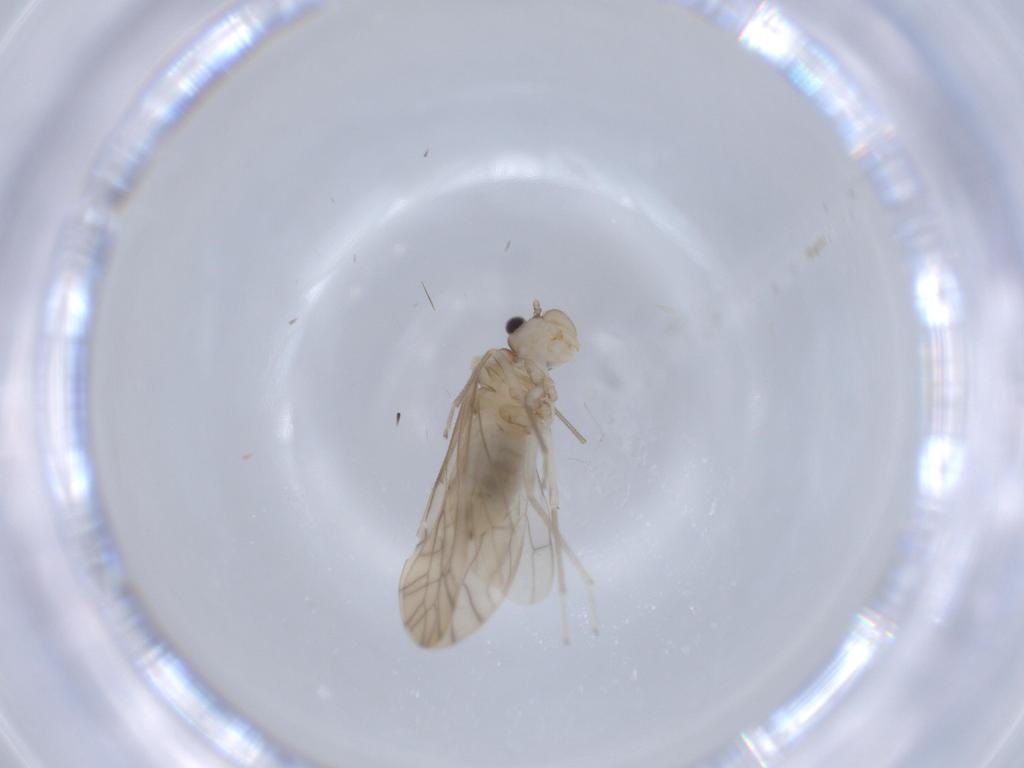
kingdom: Animalia
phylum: Arthropoda
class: Insecta
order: Psocodea
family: Caeciliusidae
